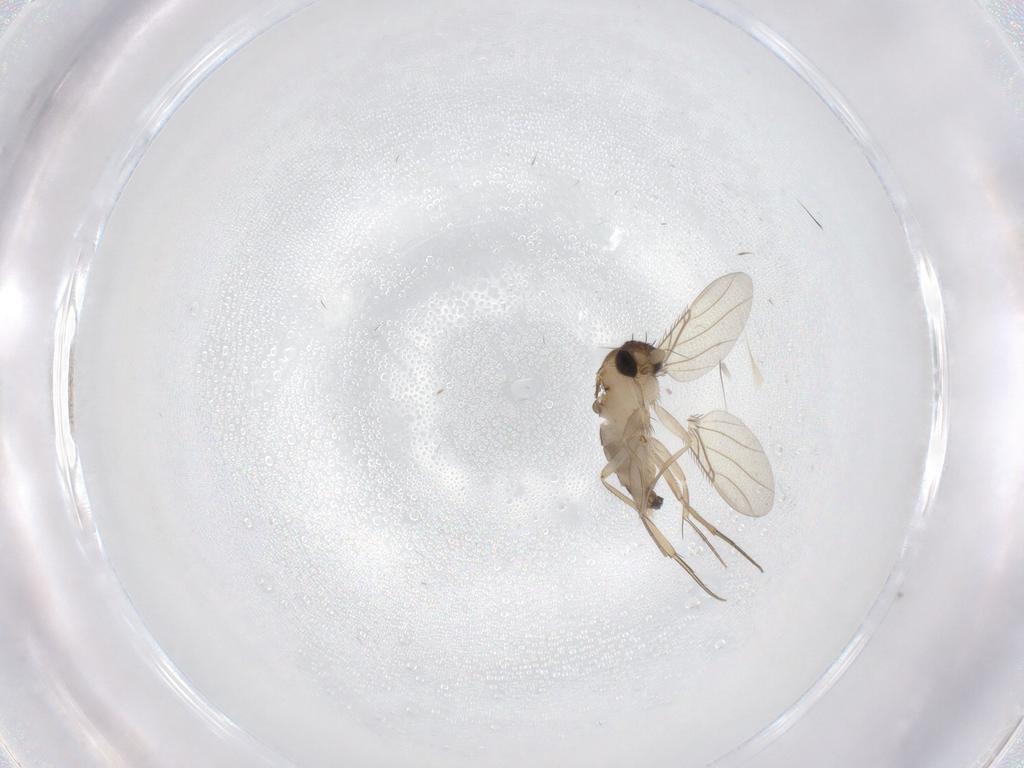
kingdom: Animalia
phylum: Arthropoda
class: Insecta
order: Diptera
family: Phoridae
